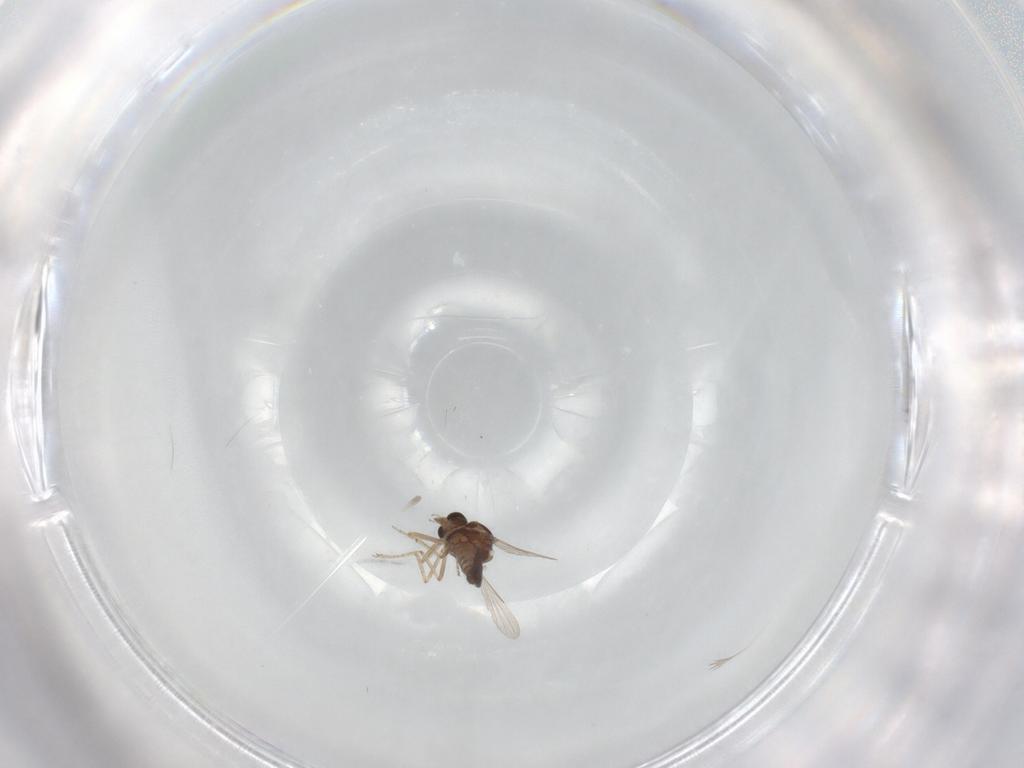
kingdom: Animalia
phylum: Arthropoda
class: Insecta
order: Diptera
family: Ceratopogonidae
